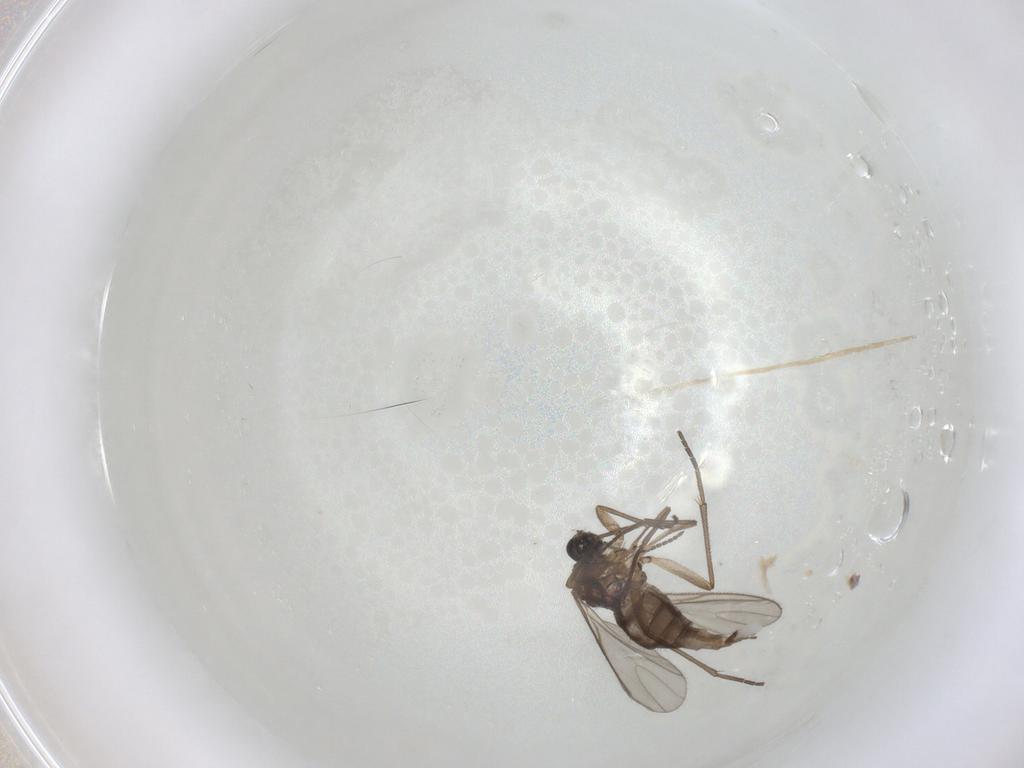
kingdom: Animalia
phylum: Arthropoda
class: Insecta
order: Diptera
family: Sciaridae
